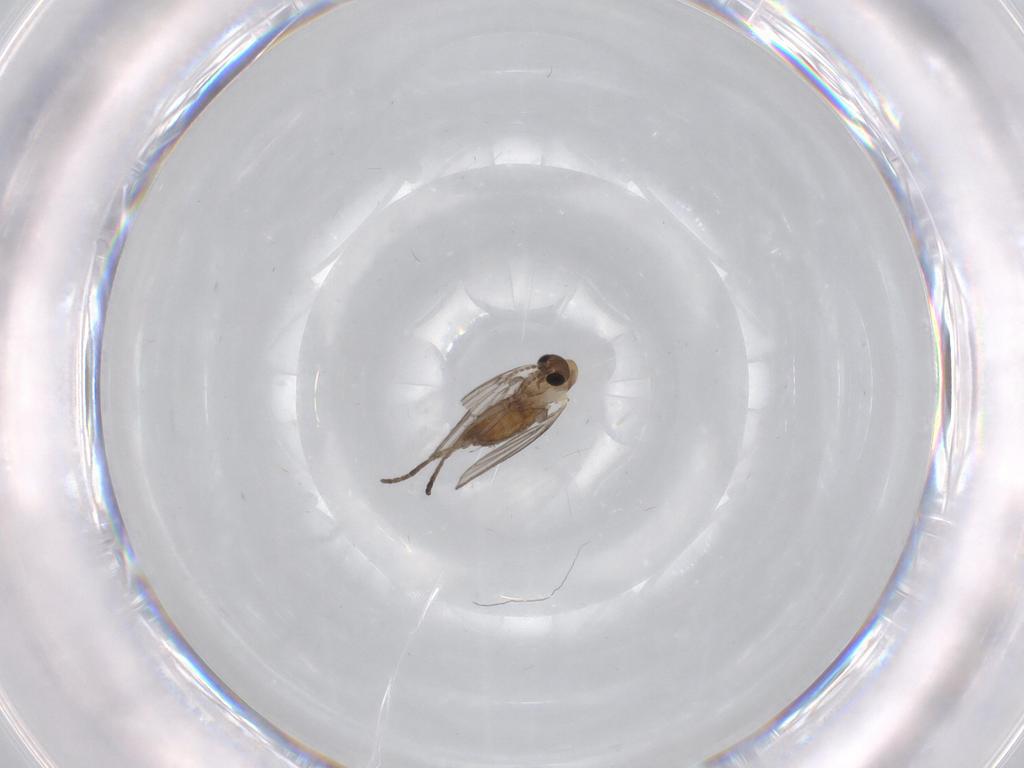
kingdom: Animalia
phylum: Arthropoda
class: Insecta
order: Diptera
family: Psychodidae
